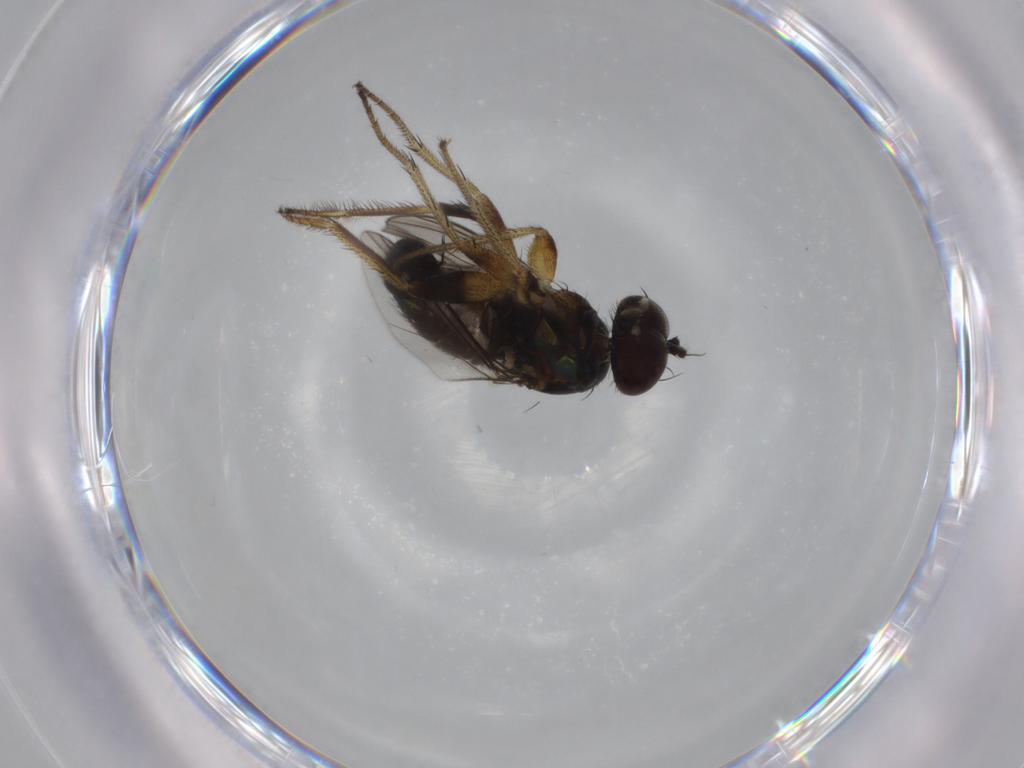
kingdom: Animalia
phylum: Arthropoda
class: Insecta
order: Diptera
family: Dolichopodidae
